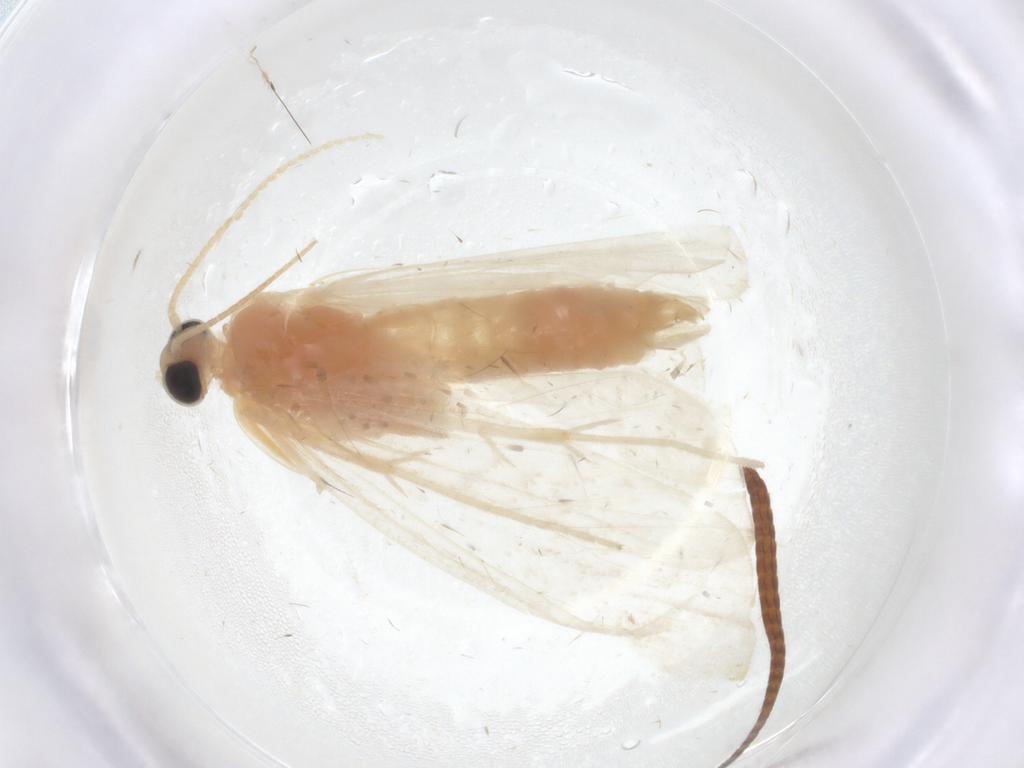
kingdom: Animalia
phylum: Arthropoda
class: Insecta
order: Lepidoptera
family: Crambidae
